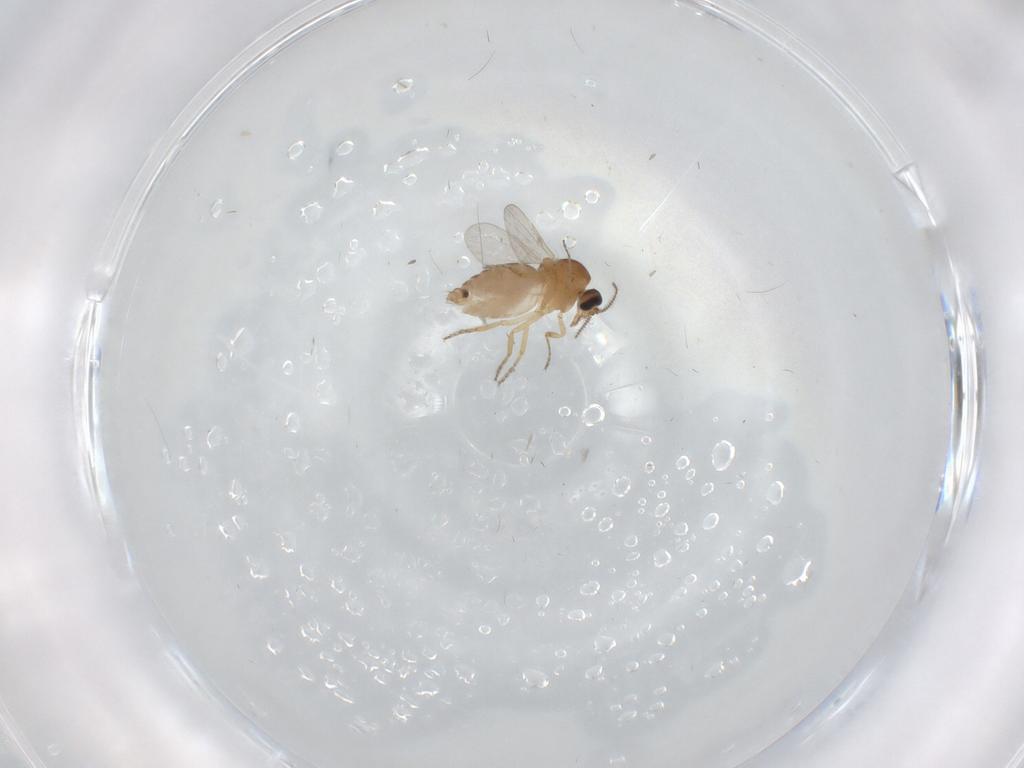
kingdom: Animalia
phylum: Arthropoda
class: Insecta
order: Diptera
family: Ceratopogonidae
